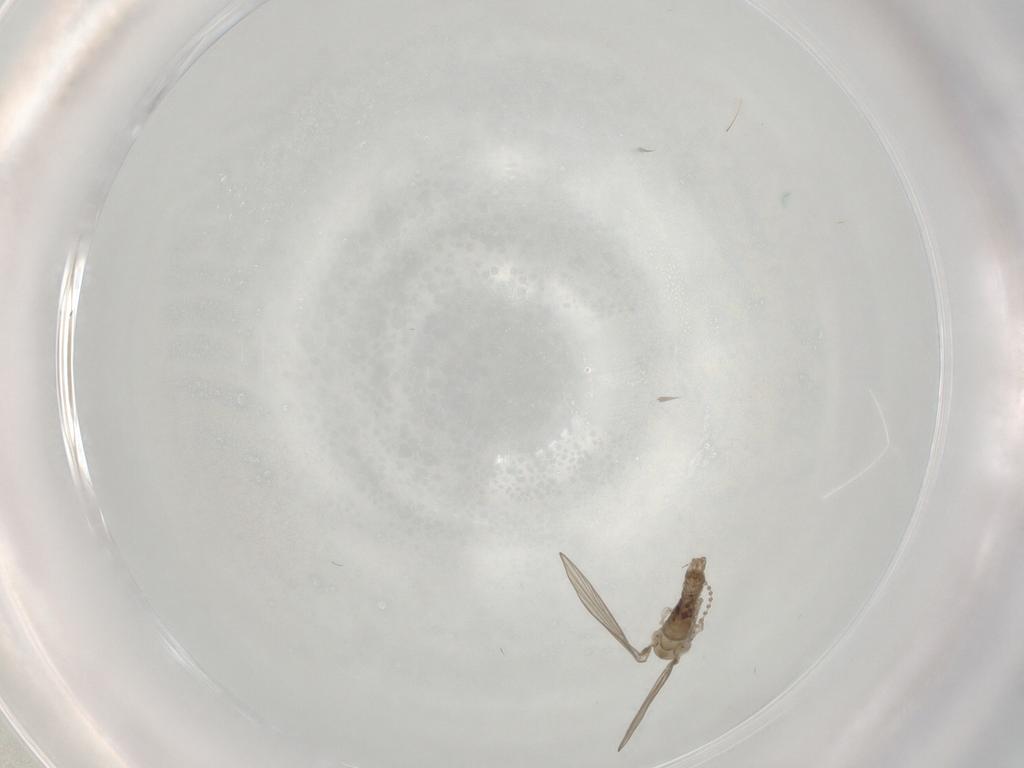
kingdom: Animalia
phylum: Arthropoda
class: Insecta
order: Diptera
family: Psychodidae
